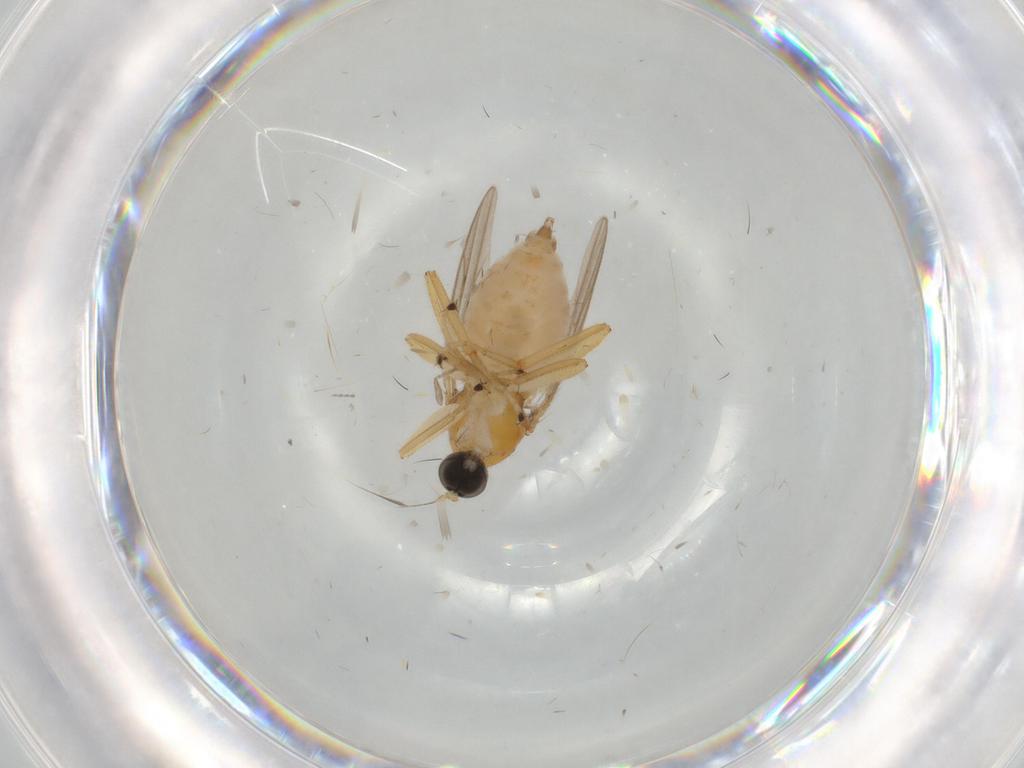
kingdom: Animalia
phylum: Arthropoda
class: Insecta
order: Diptera
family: Hybotidae
